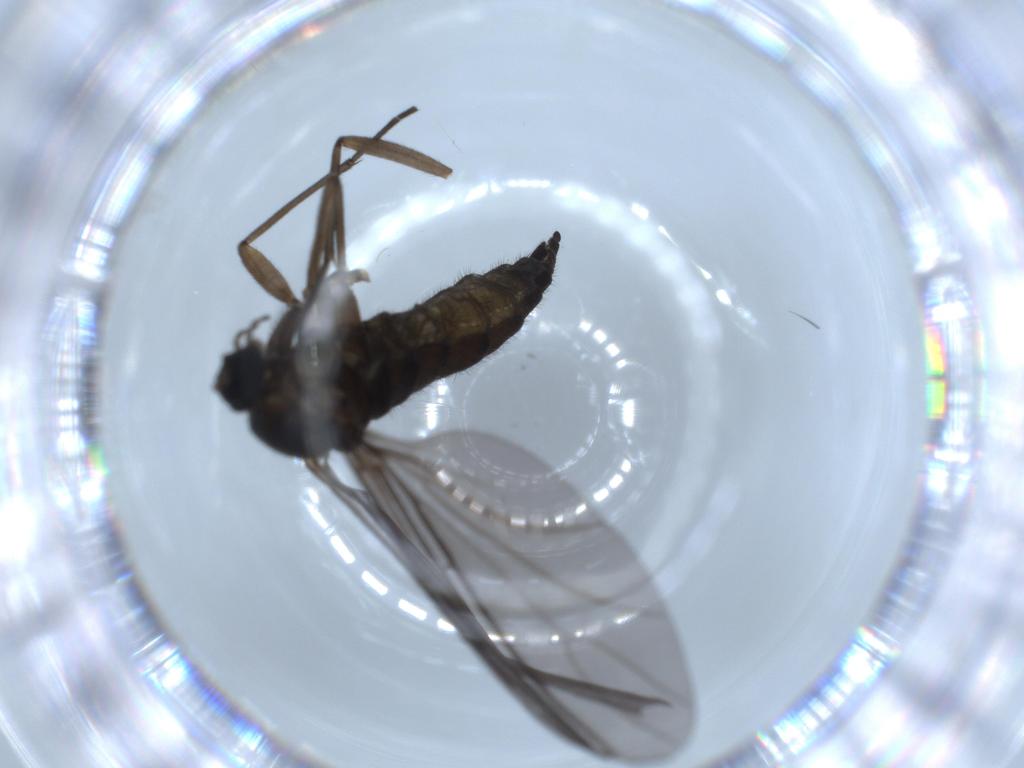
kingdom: Animalia
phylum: Arthropoda
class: Insecta
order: Diptera
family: Sciaridae
